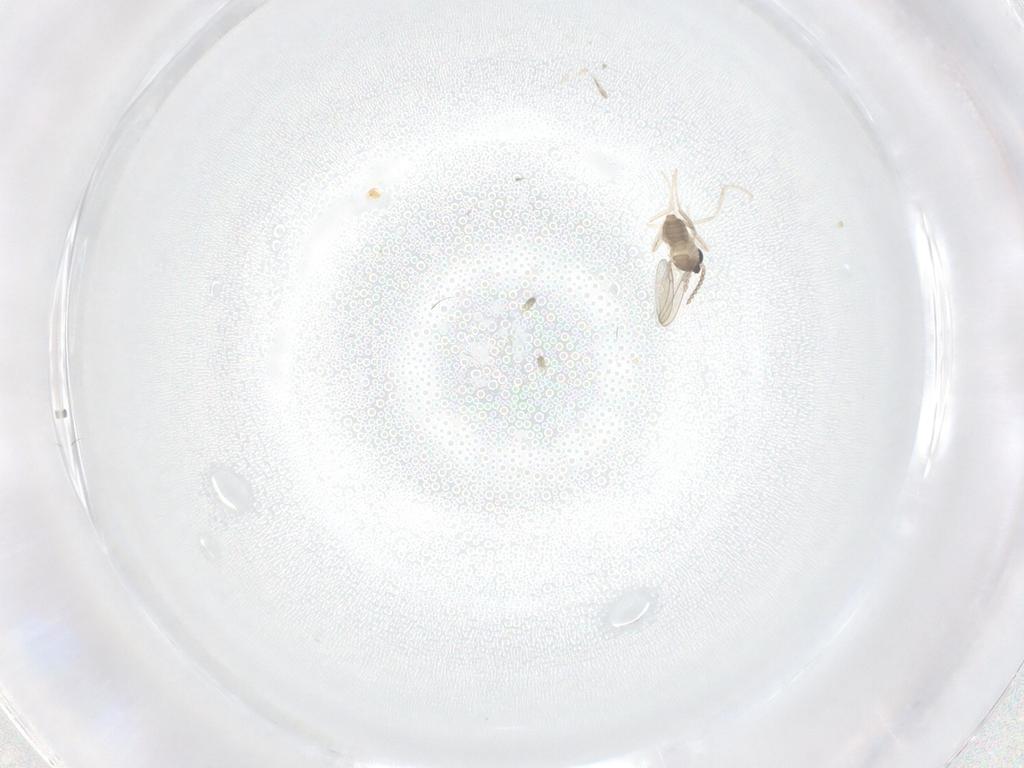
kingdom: Animalia
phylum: Arthropoda
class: Insecta
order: Diptera
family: Cecidomyiidae
